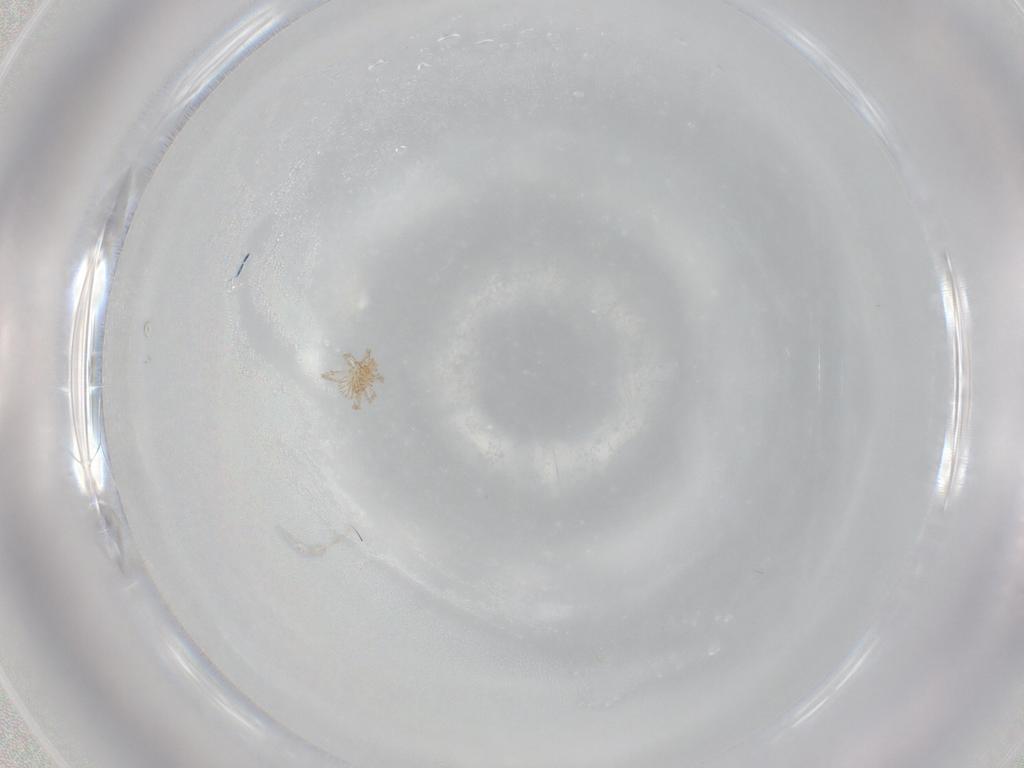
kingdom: Animalia
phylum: Arthropoda
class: Arachnida
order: Trombidiformes
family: Erythraeidae
